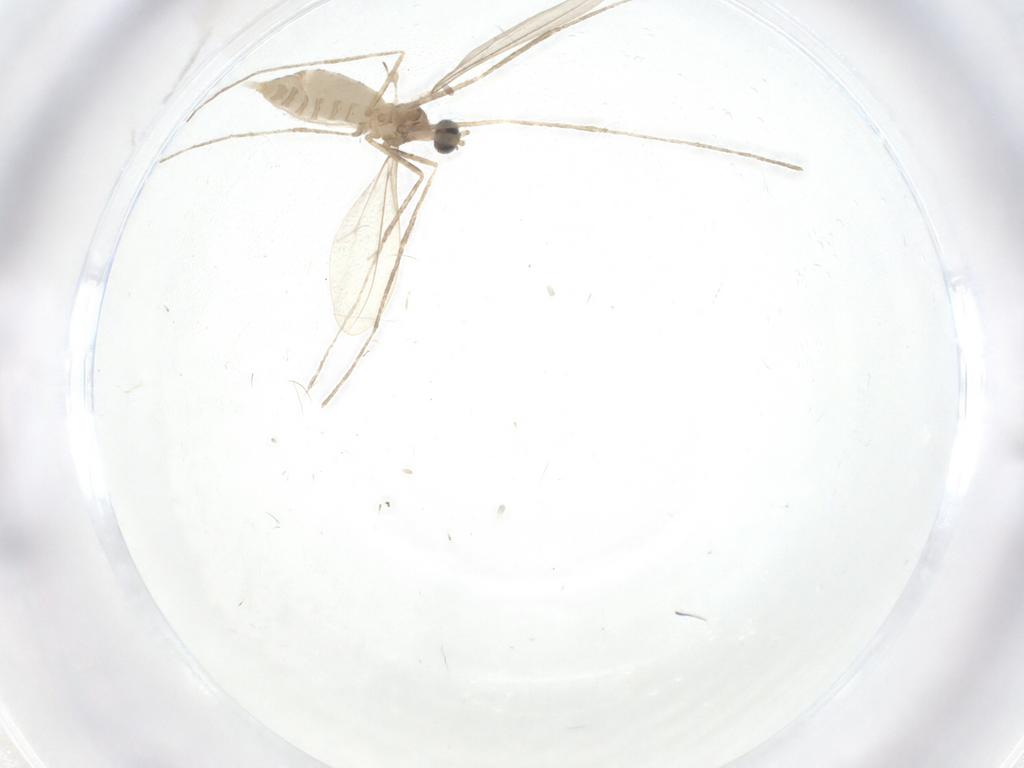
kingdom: Animalia
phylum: Arthropoda
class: Insecta
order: Diptera
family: Cecidomyiidae
